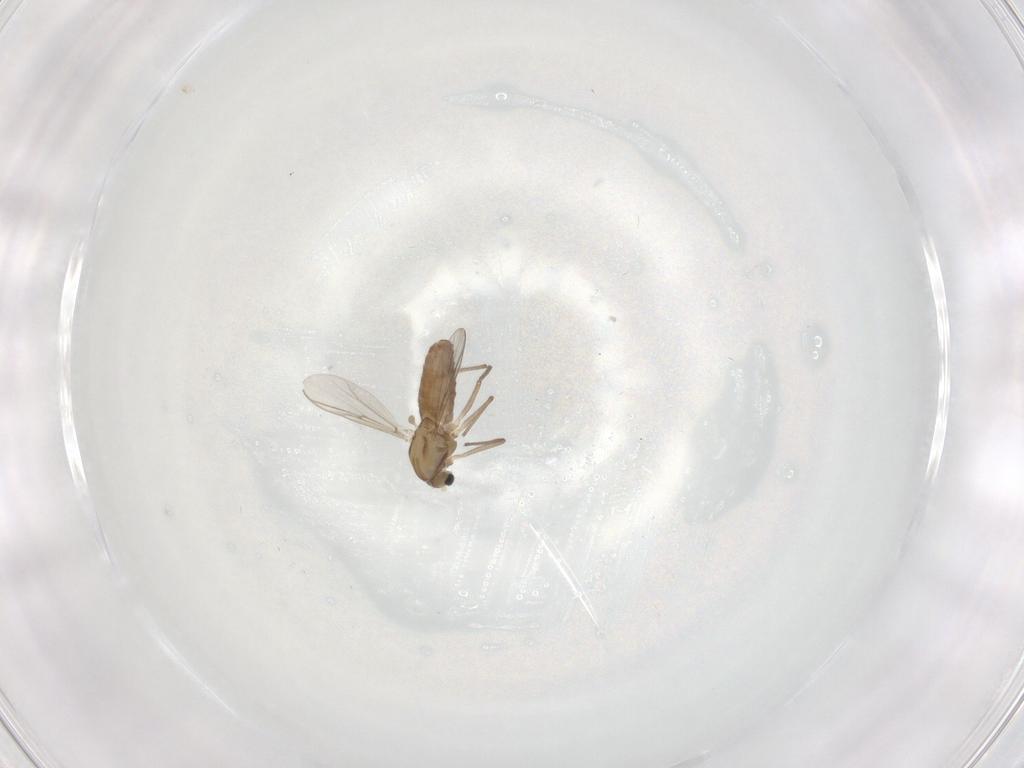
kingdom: Animalia
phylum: Arthropoda
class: Insecta
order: Diptera
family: Chironomidae
